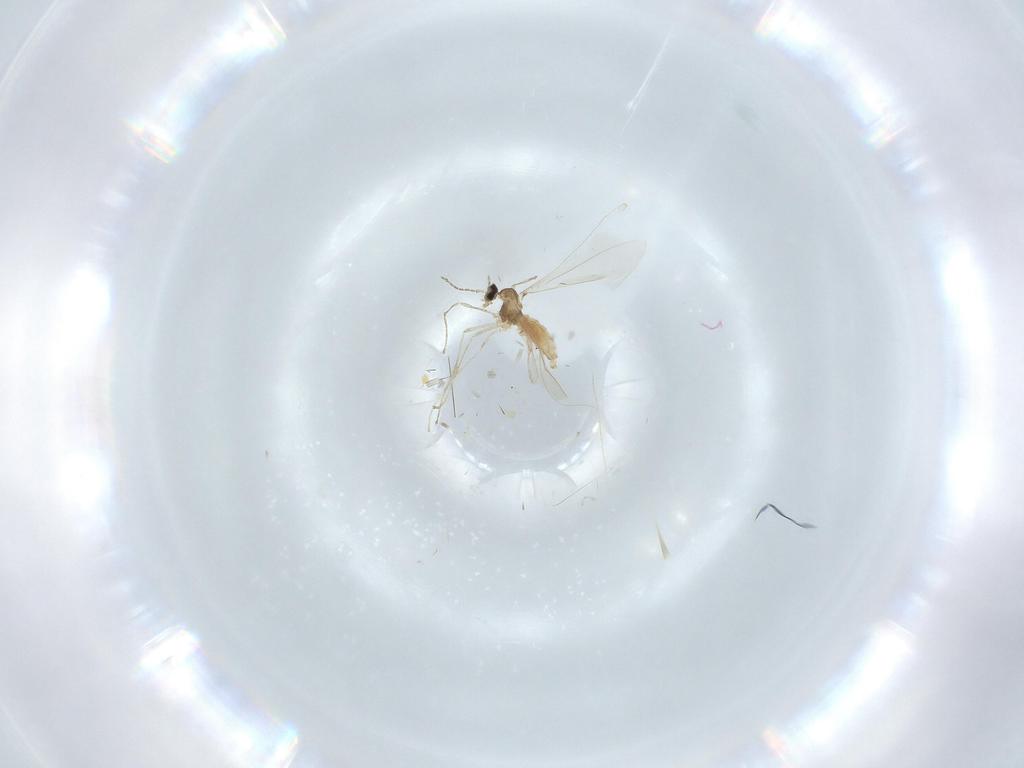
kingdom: Animalia
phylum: Arthropoda
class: Insecta
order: Diptera
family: Cecidomyiidae
